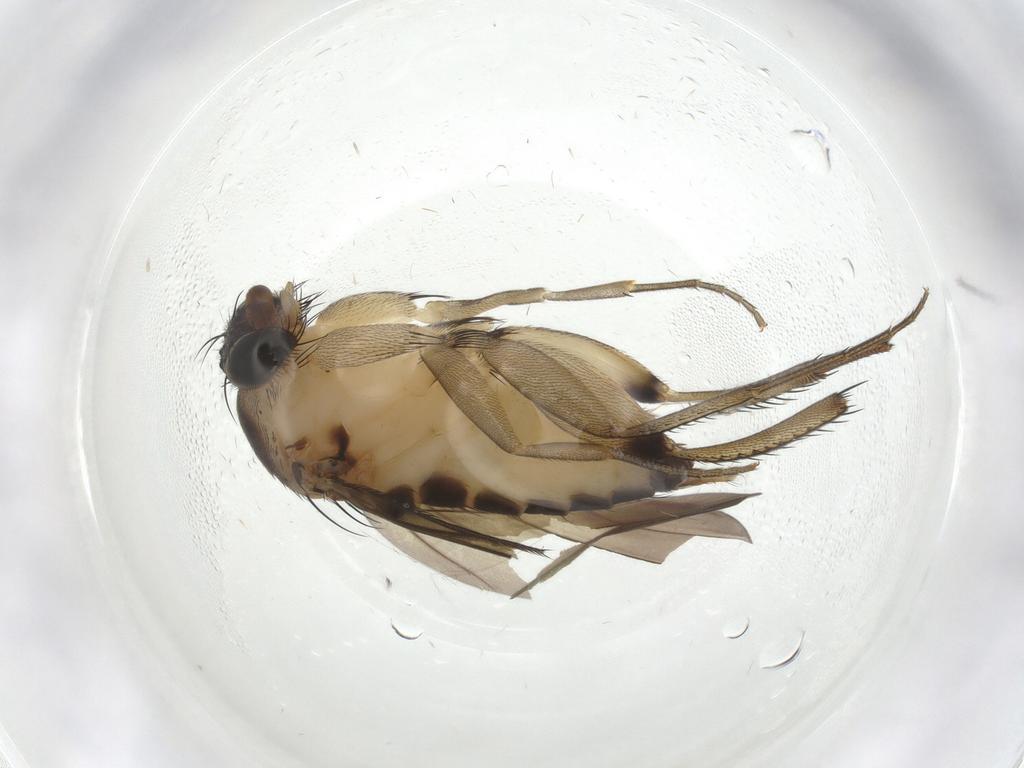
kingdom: Animalia
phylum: Arthropoda
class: Insecta
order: Diptera
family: Phoridae
